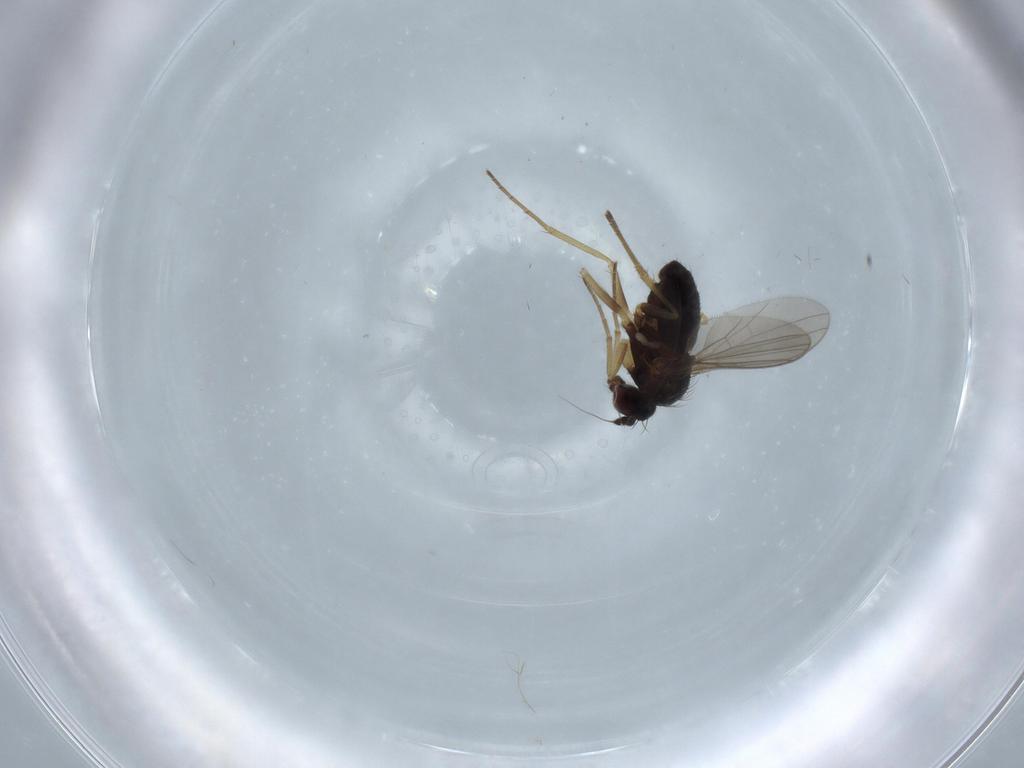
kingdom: Animalia
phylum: Arthropoda
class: Insecta
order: Diptera
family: Dolichopodidae
